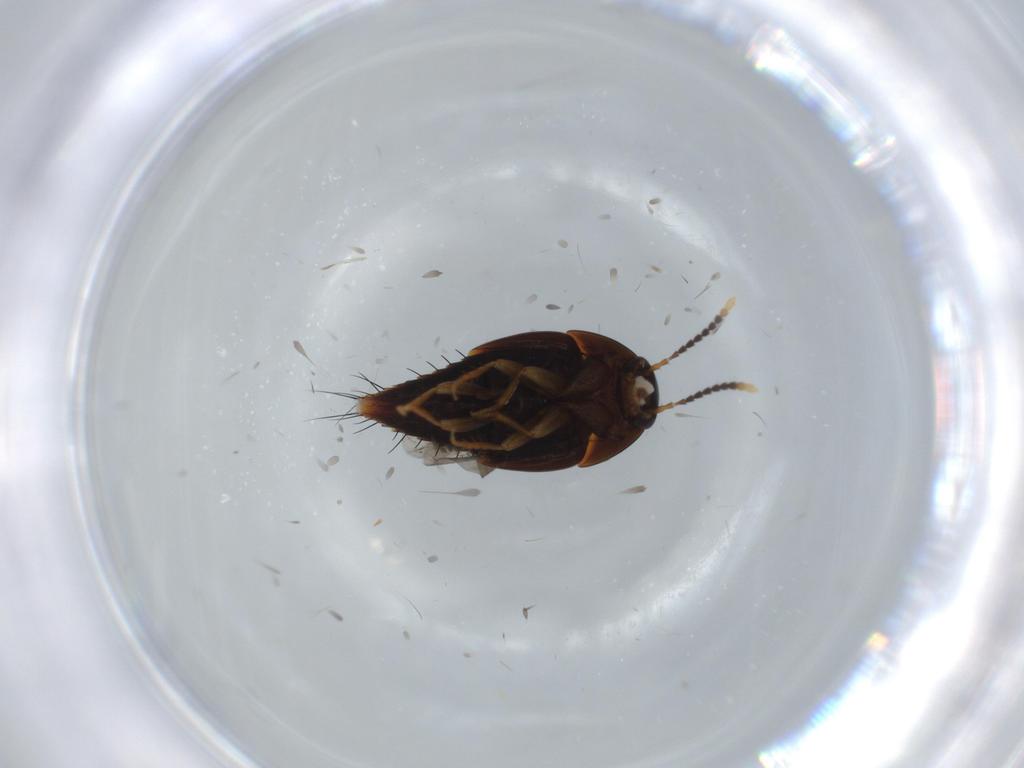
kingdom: Animalia
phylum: Arthropoda
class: Insecta
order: Coleoptera
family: Staphylinidae
